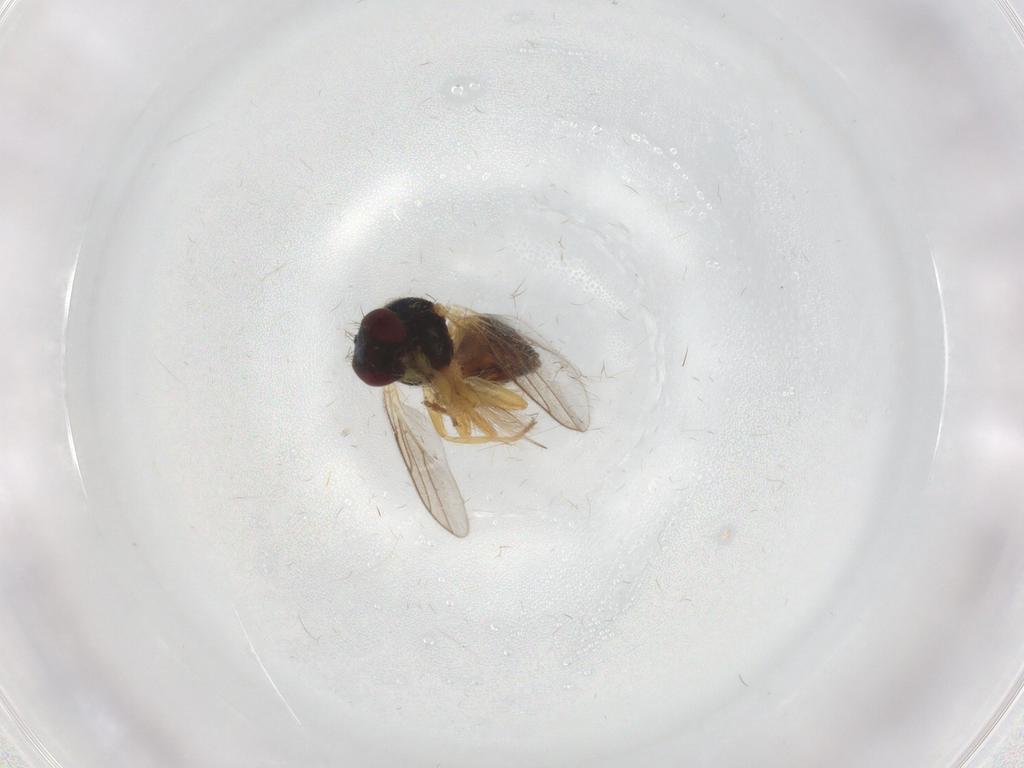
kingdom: Animalia
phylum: Arthropoda
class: Insecta
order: Diptera
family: Chloropidae
